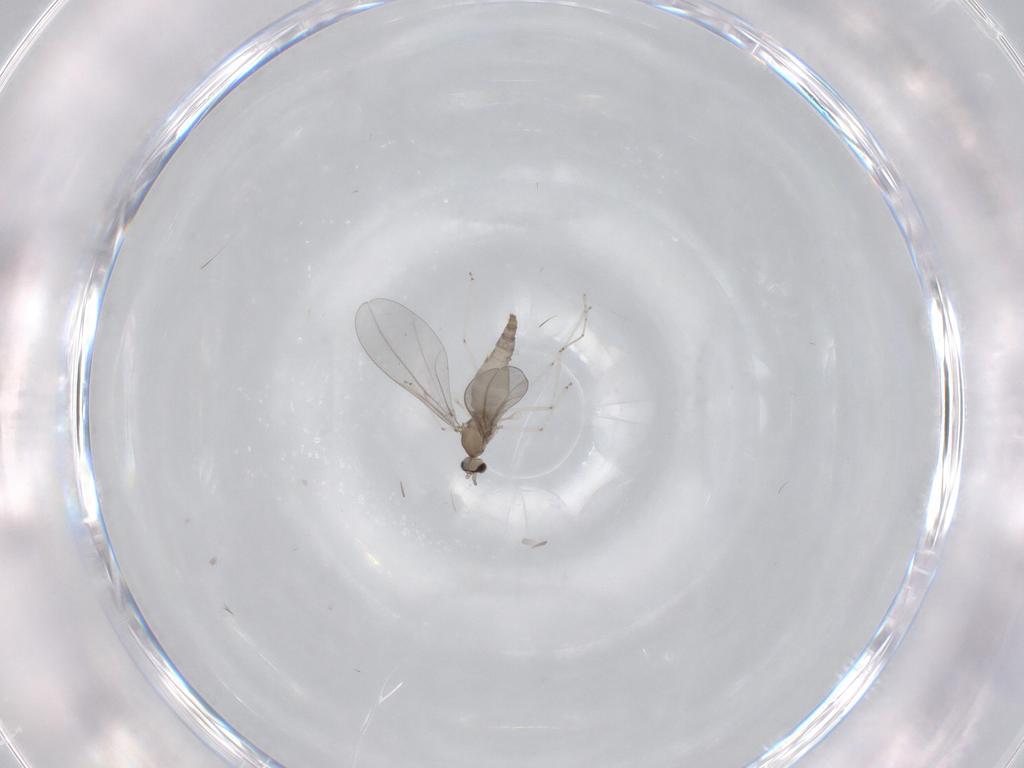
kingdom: Animalia
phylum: Arthropoda
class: Insecta
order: Diptera
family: Cecidomyiidae
